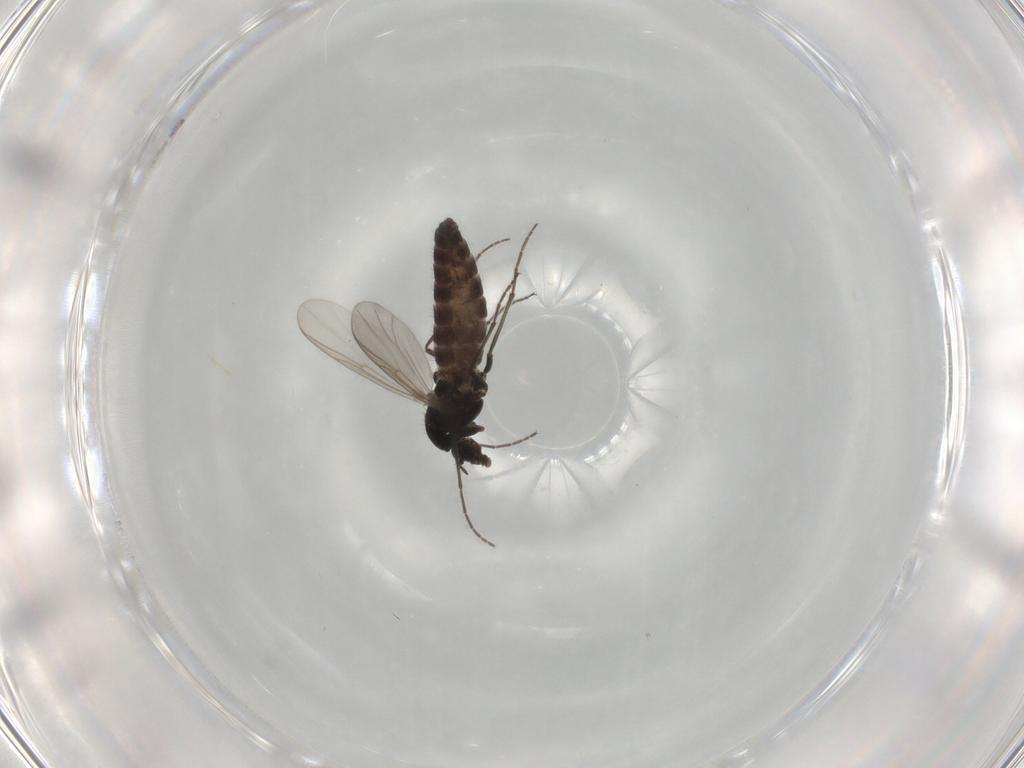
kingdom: Animalia
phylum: Arthropoda
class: Insecta
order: Diptera
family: Chironomidae
